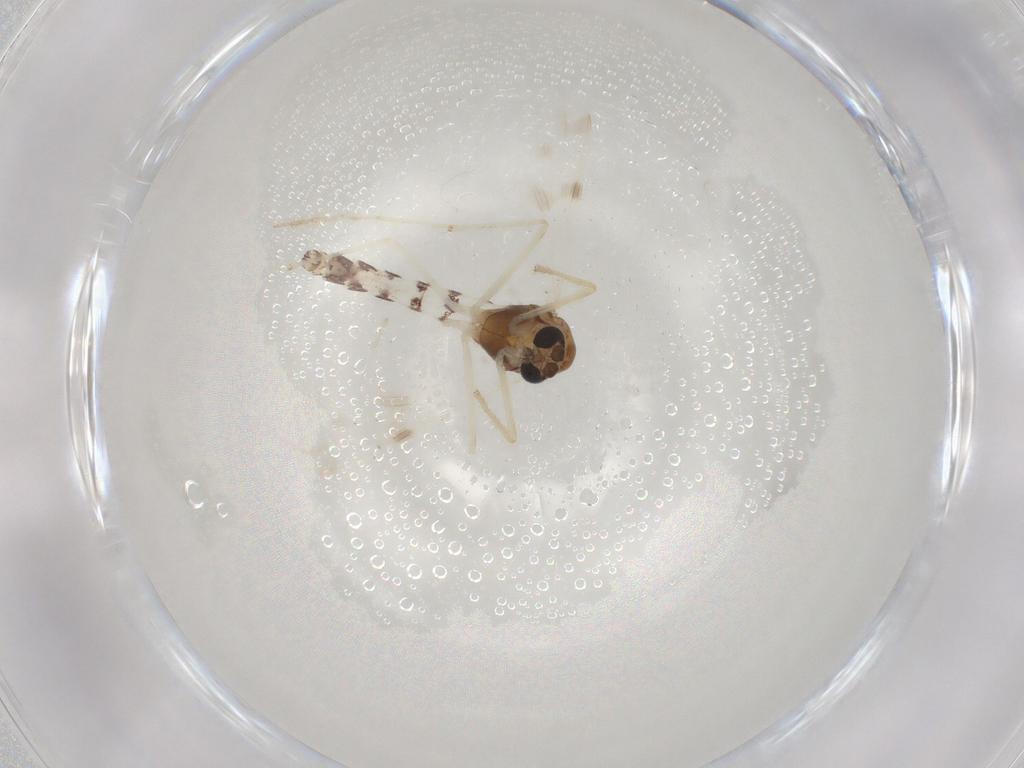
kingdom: Animalia
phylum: Arthropoda
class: Insecta
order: Diptera
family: Chironomidae
